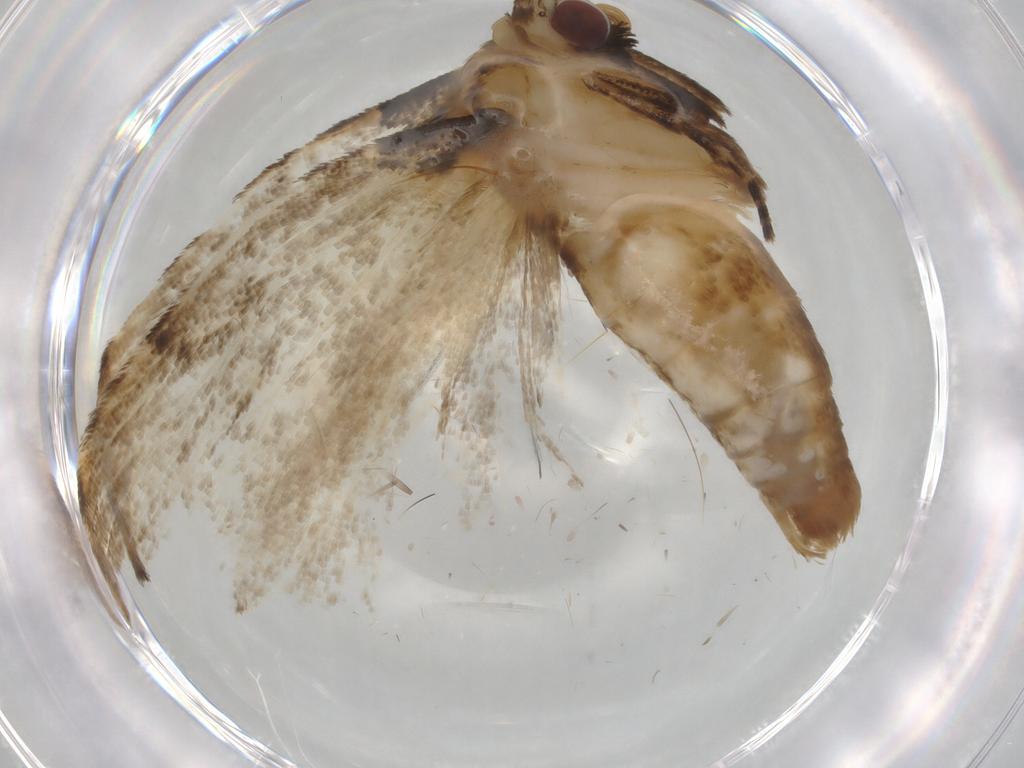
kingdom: Animalia
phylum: Arthropoda
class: Insecta
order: Lepidoptera
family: Erebidae
